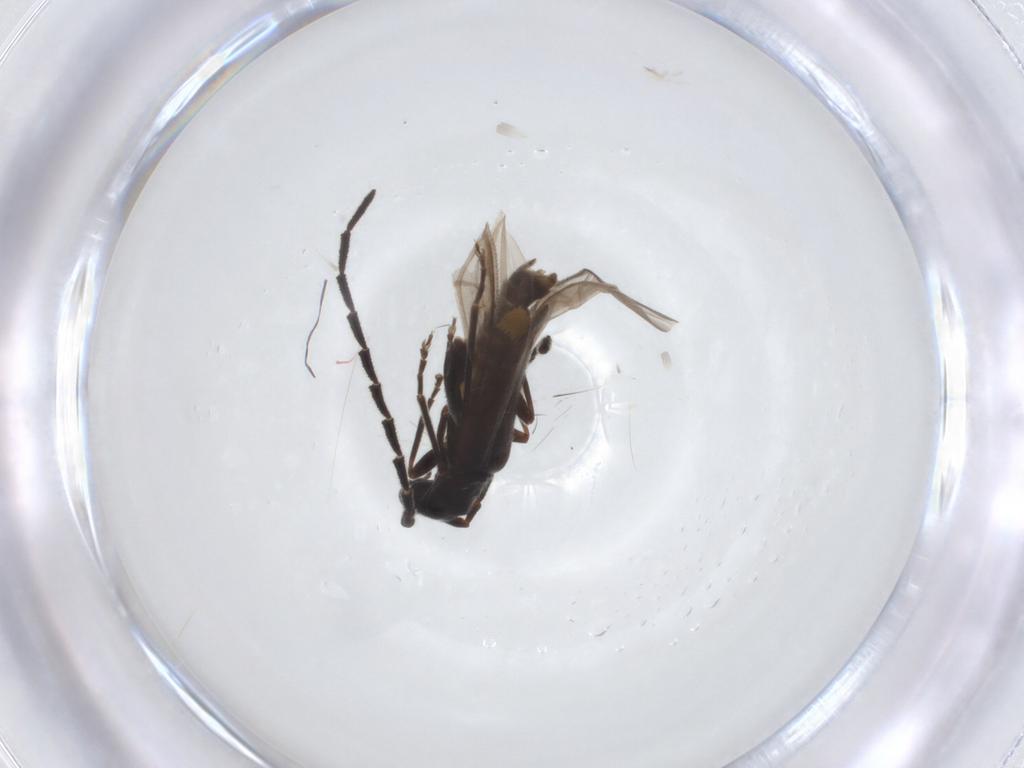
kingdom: Animalia
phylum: Arthropoda
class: Insecta
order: Coleoptera
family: Cantharidae
